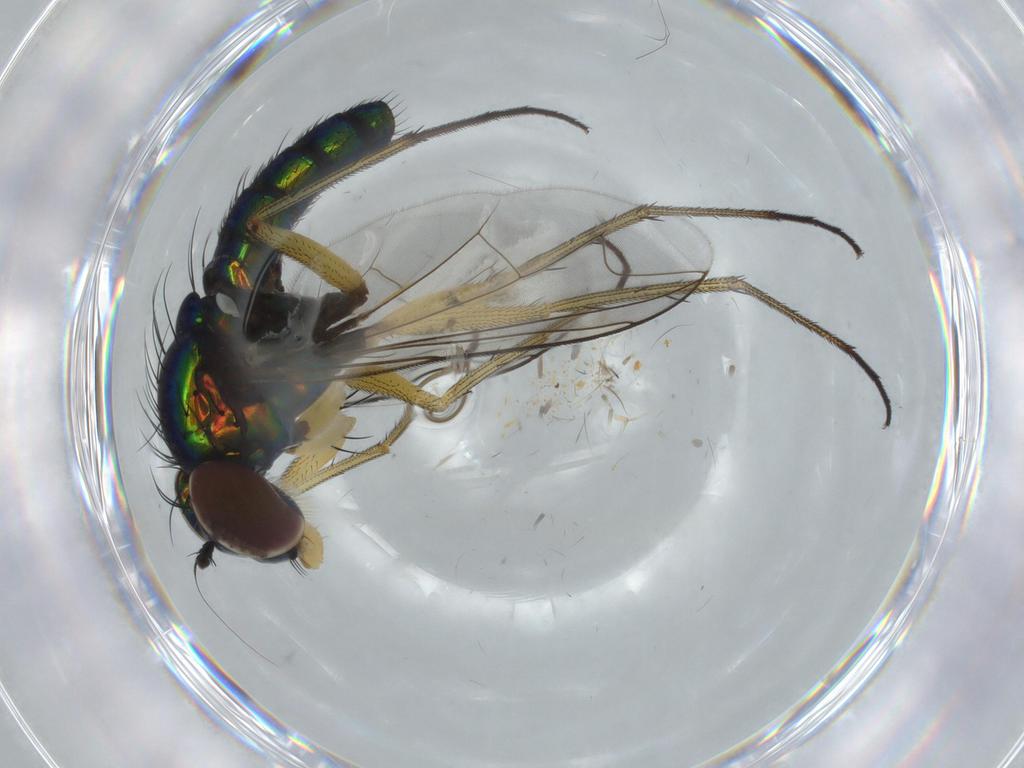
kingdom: Animalia
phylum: Arthropoda
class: Insecta
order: Diptera
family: Dolichopodidae
